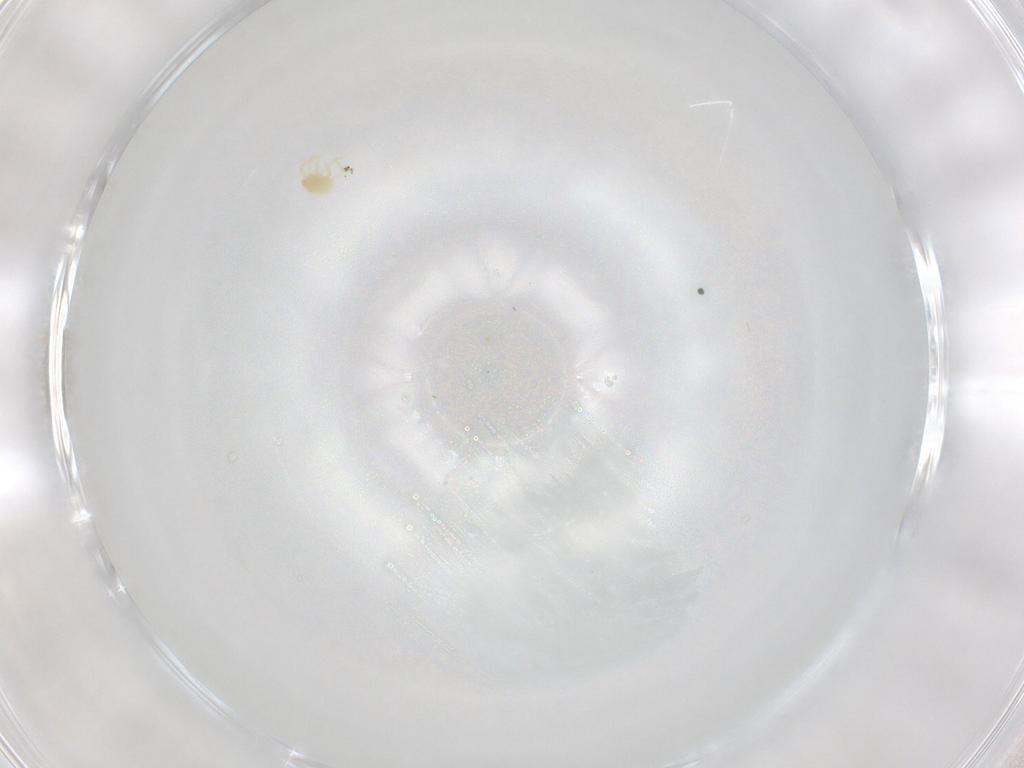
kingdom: Animalia
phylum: Arthropoda
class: Arachnida
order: Araneae
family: Lycosidae
